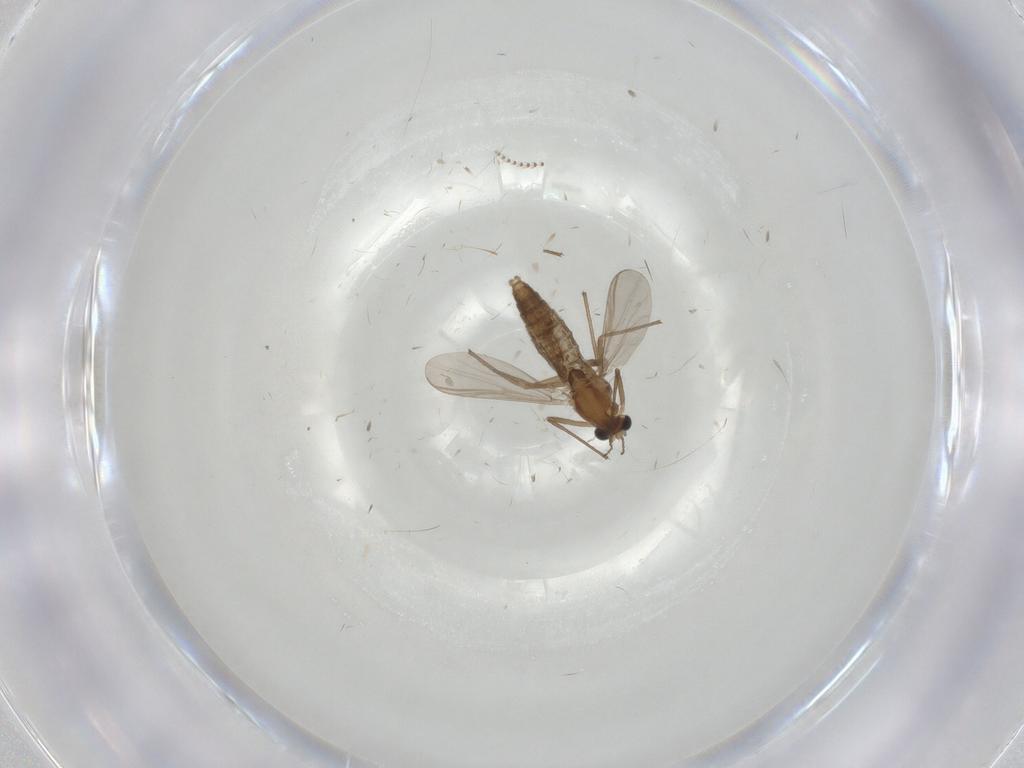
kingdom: Animalia
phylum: Arthropoda
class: Insecta
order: Diptera
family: Chironomidae
